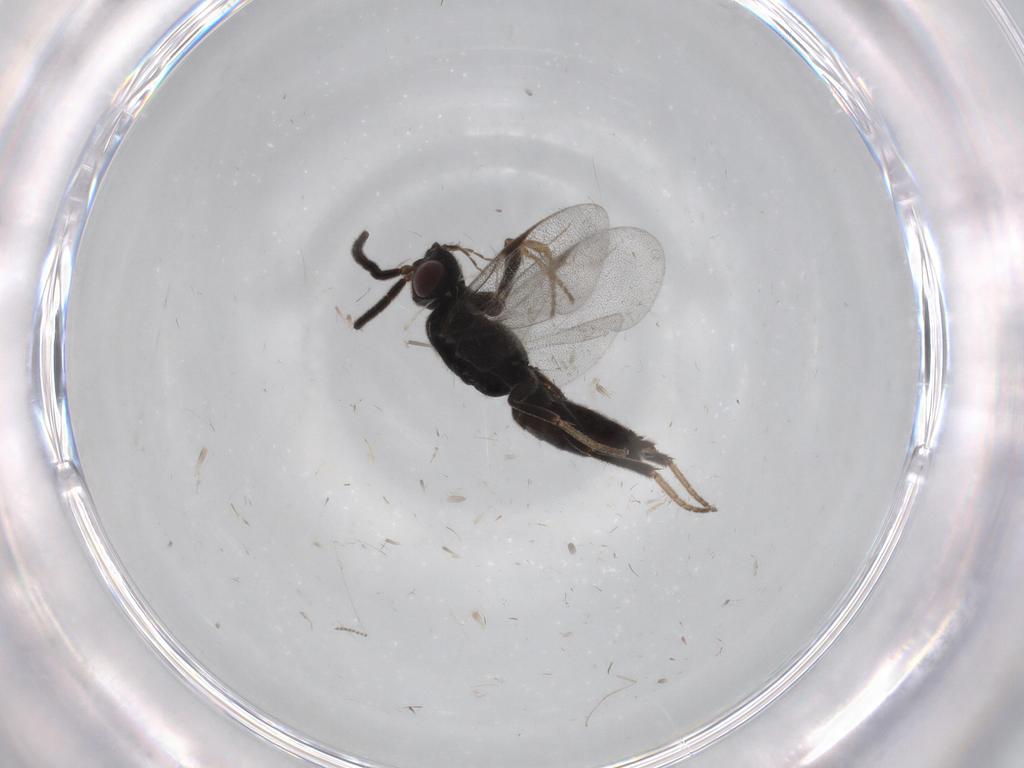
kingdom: Animalia
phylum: Arthropoda
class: Insecta
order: Hymenoptera
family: Dryinidae
